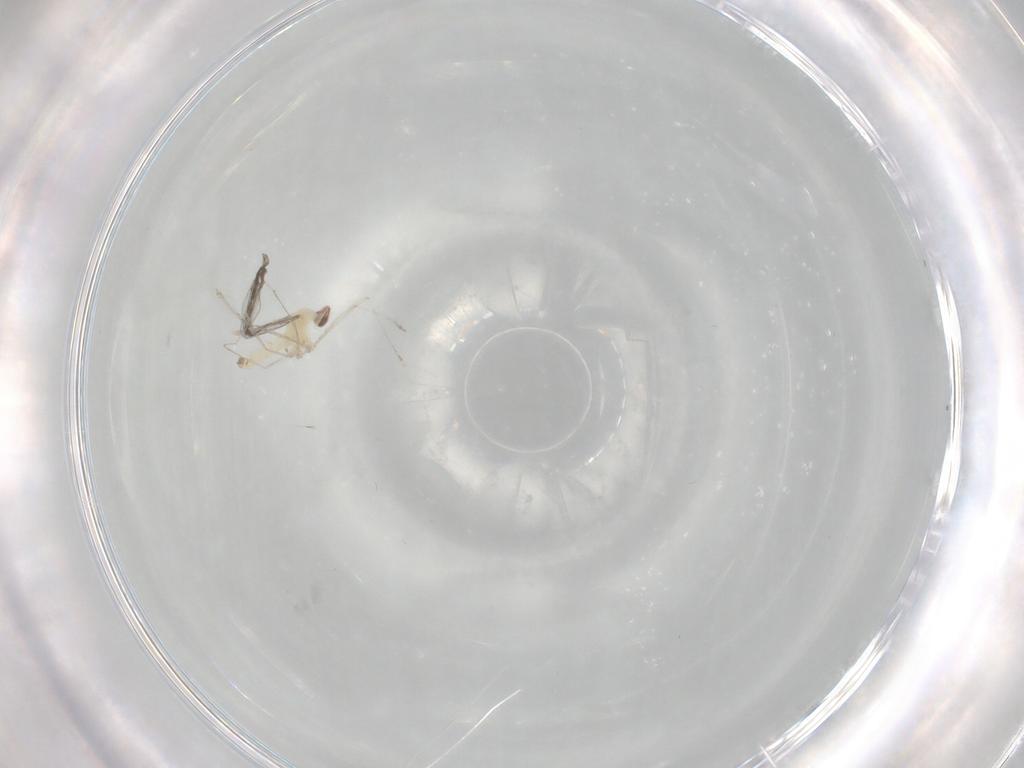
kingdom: Animalia
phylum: Arthropoda
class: Insecta
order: Diptera
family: Cecidomyiidae
